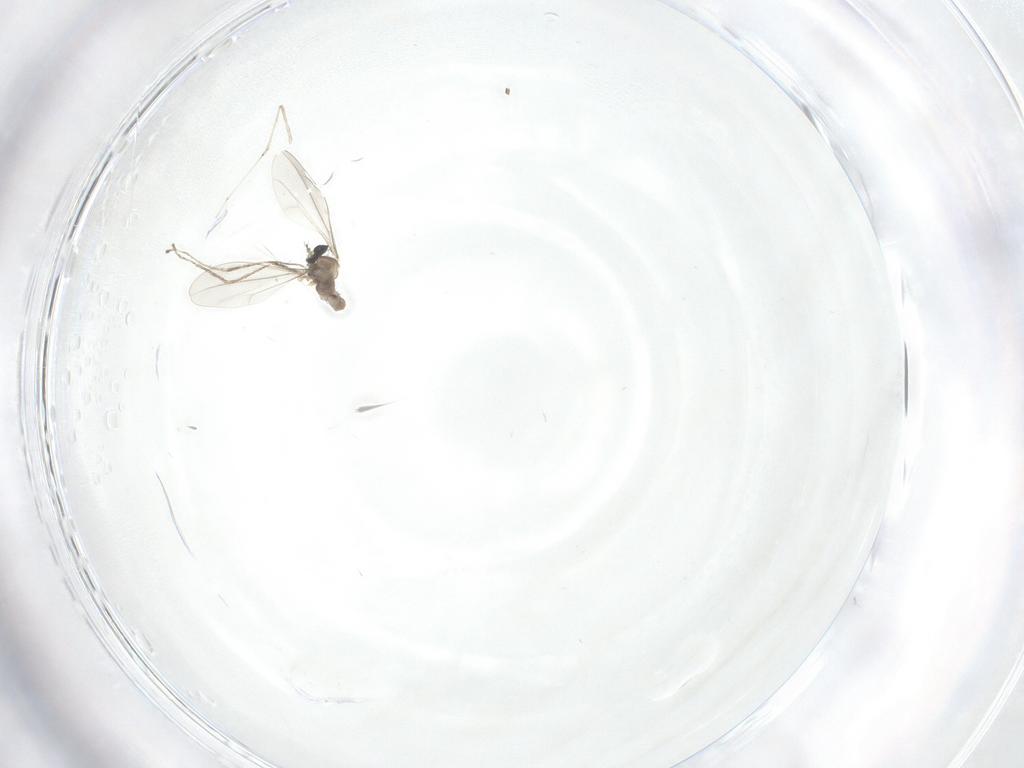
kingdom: Animalia
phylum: Arthropoda
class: Insecta
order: Diptera
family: Cecidomyiidae
